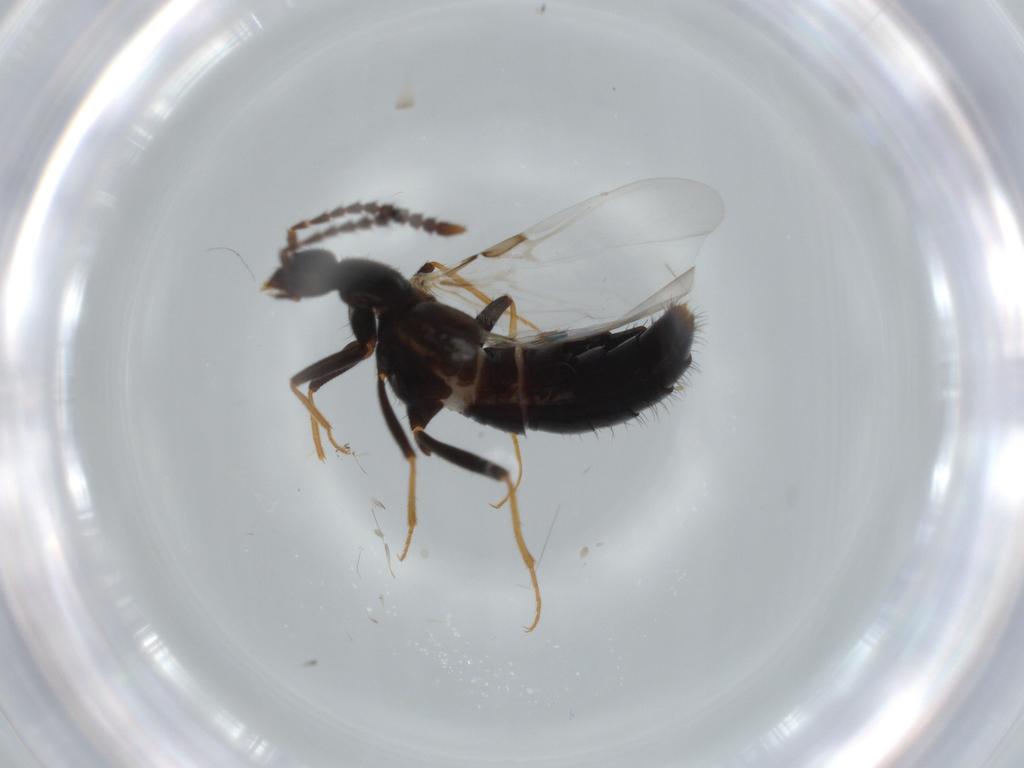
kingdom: Animalia
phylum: Arthropoda
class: Insecta
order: Coleoptera
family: Staphylinidae
